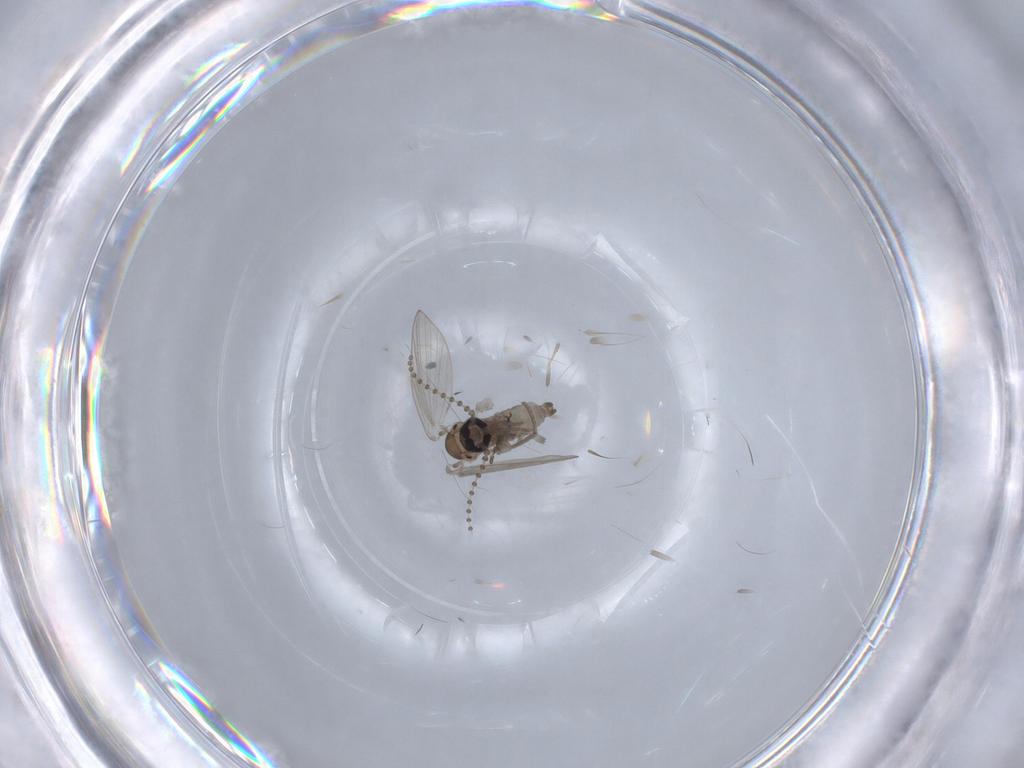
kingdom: Animalia
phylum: Arthropoda
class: Insecta
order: Diptera
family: Psychodidae
